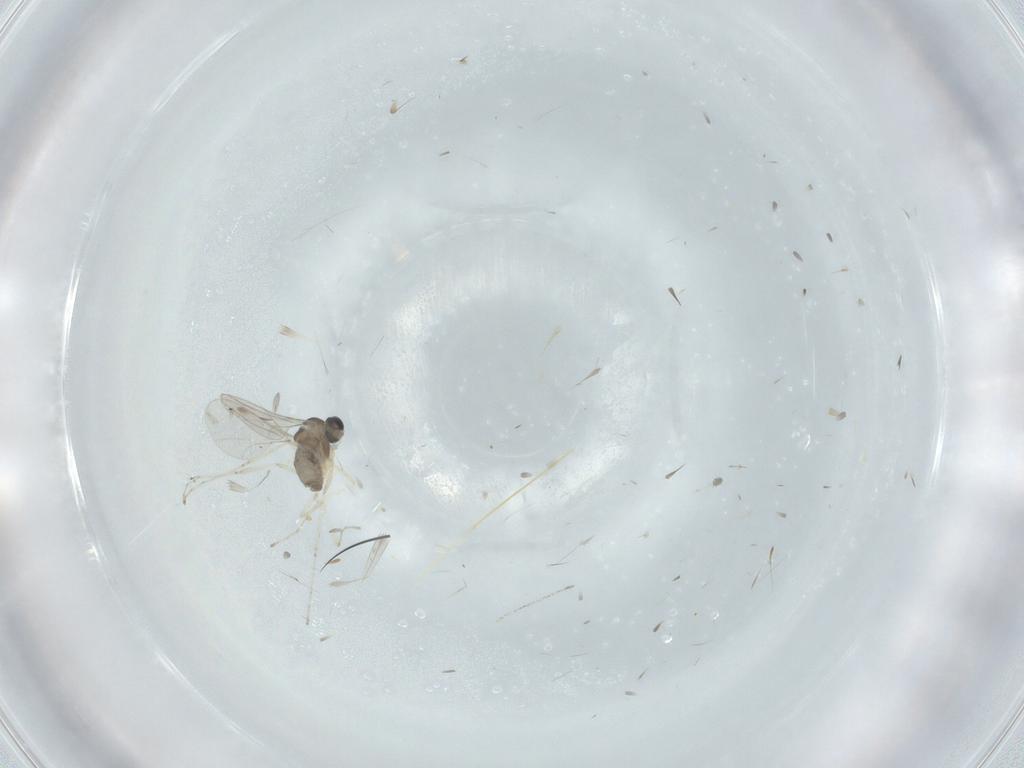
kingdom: Animalia
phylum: Arthropoda
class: Insecta
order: Diptera
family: Cecidomyiidae
